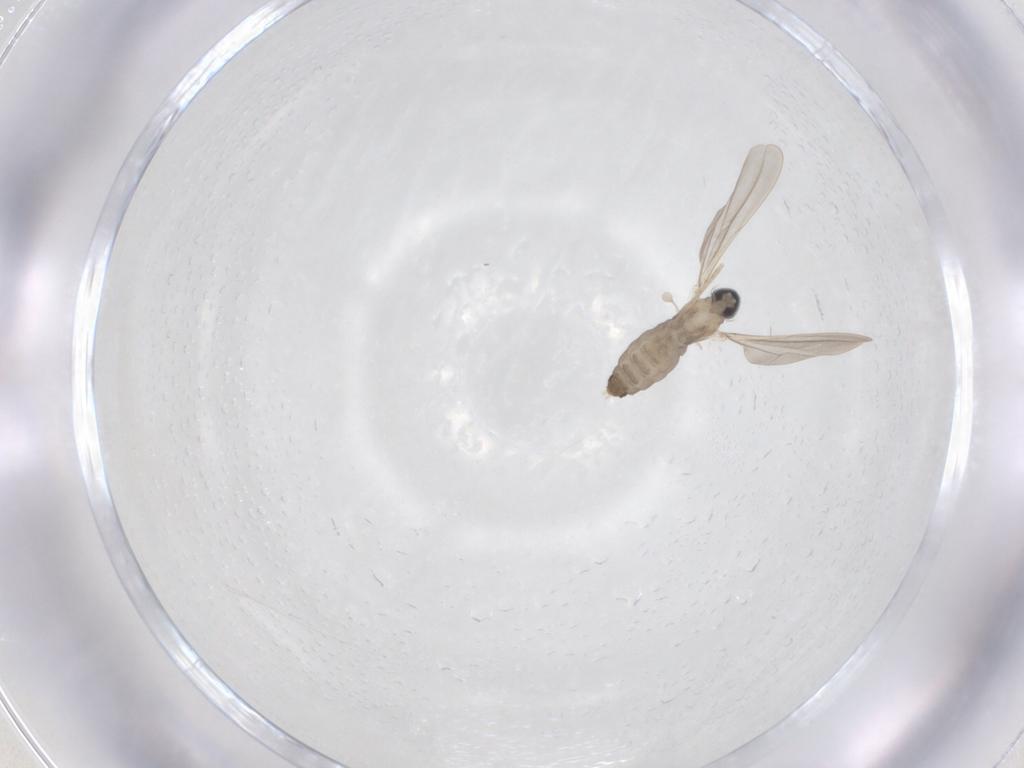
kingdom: Animalia
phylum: Arthropoda
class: Insecta
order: Diptera
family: Cecidomyiidae
